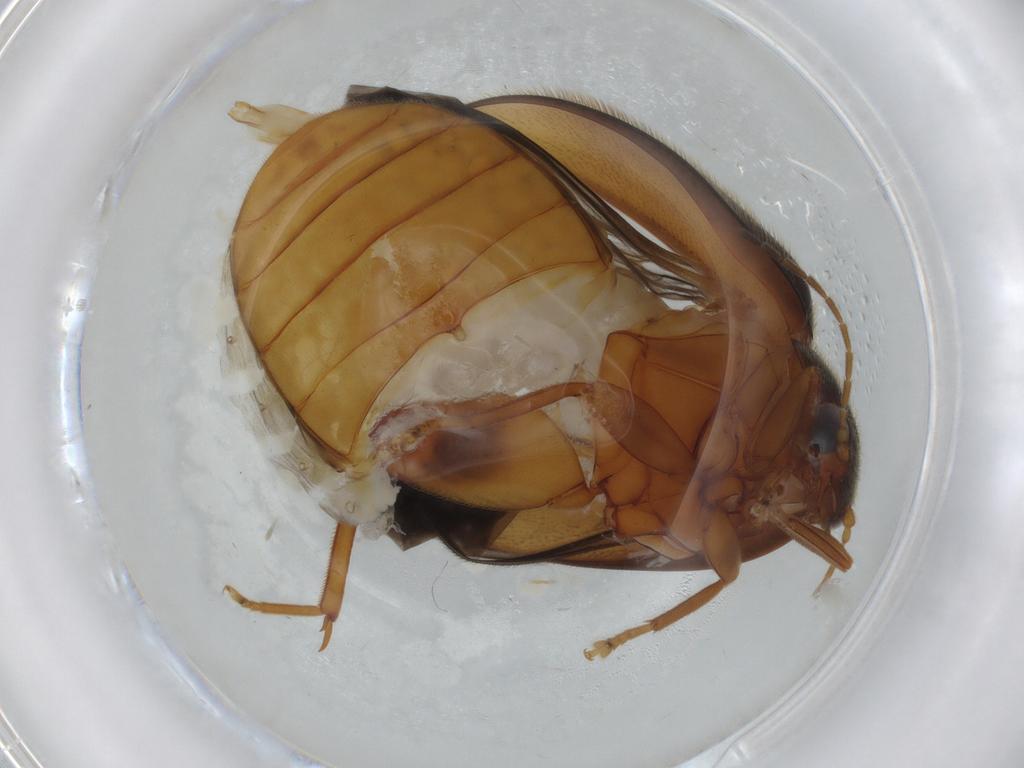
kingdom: Animalia
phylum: Arthropoda
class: Insecta
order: Coleoptera
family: Scirtidae
